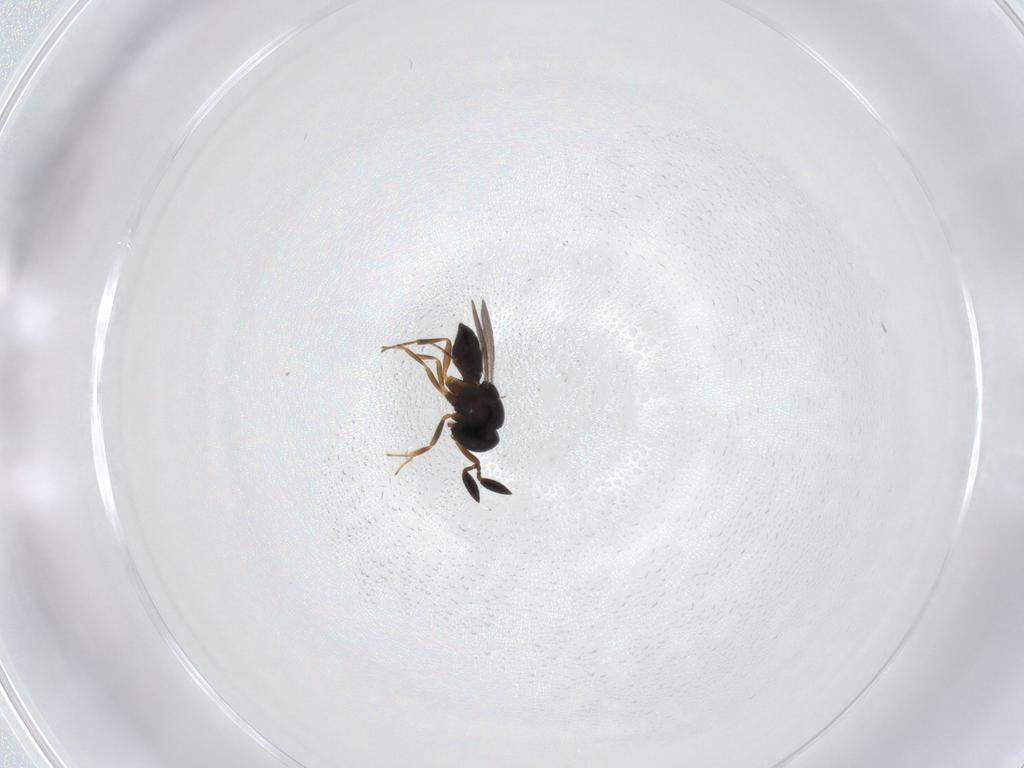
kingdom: Animalia
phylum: Arthropoda
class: Insecta
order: Hymenoptera
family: Scelionidae
